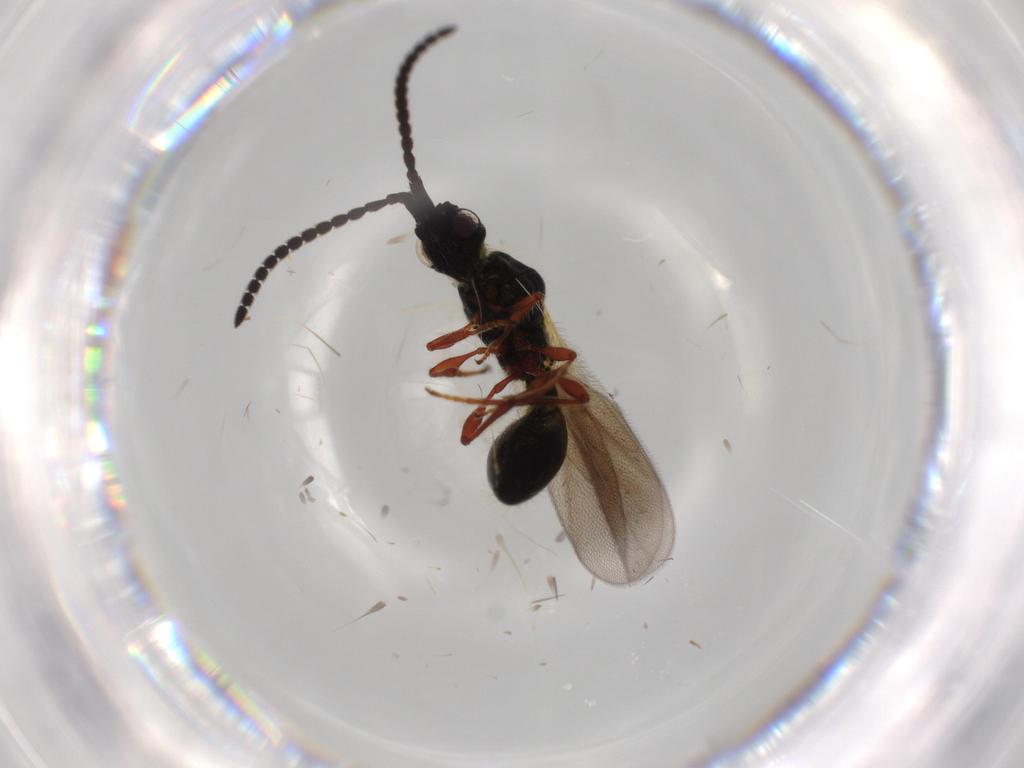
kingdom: Animalia
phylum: Arthropoda
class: Insecta
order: Hymenoptera
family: Diapriidae
